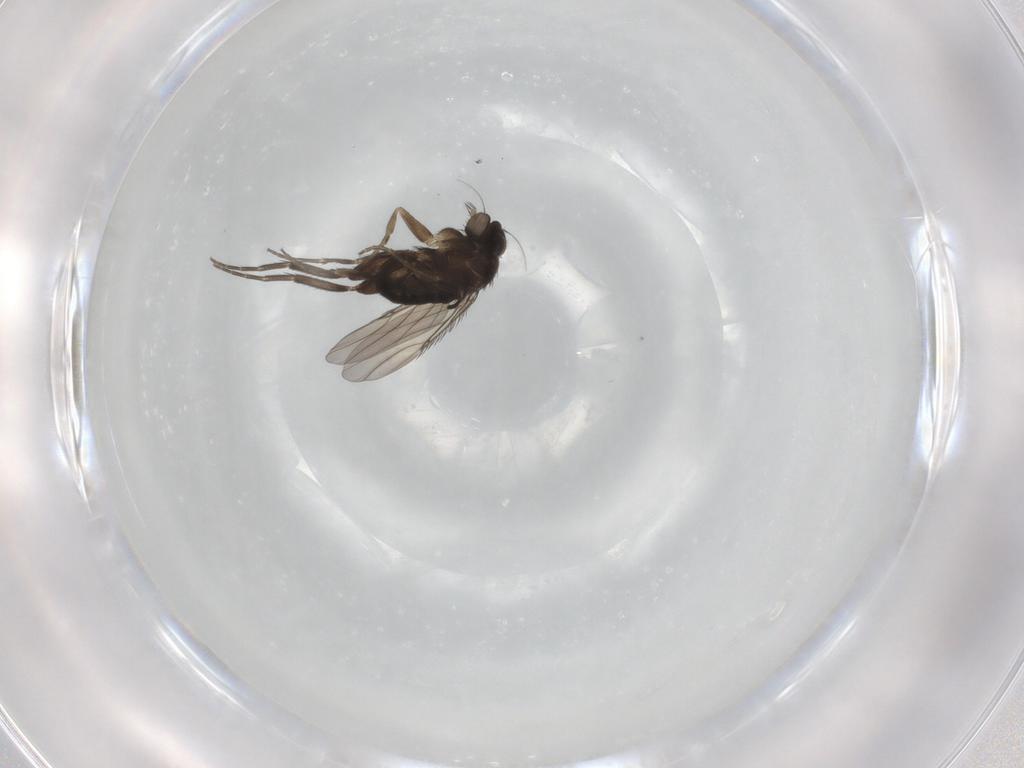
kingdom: Animalia
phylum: Arthropoda
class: Insecta
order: Diptera
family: Phoridae
